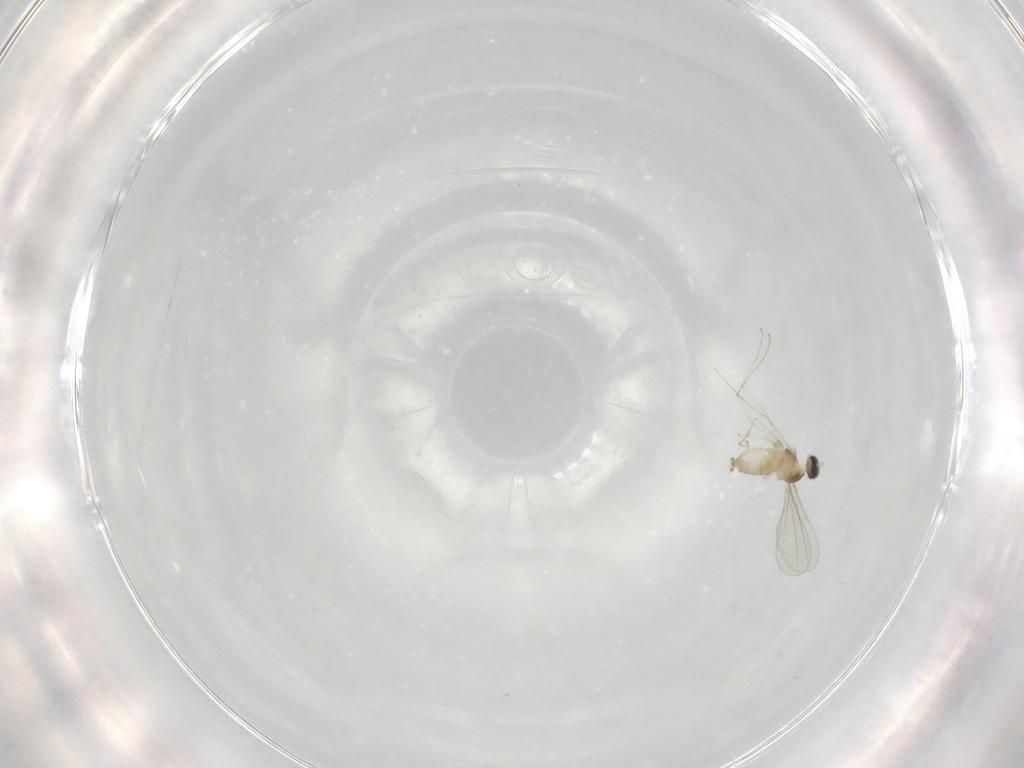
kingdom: Animalia
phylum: Arthropoda
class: Insecta
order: Diptera
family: Cecidomyiidae
